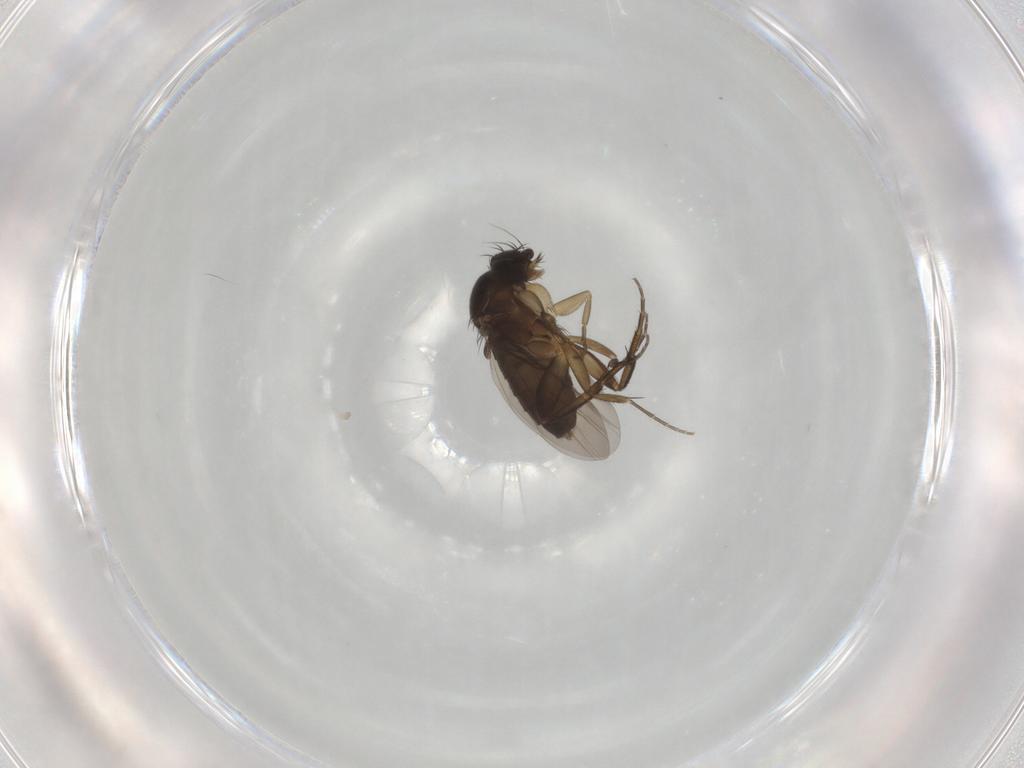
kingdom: Animalia
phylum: Arthropoda
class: Insecta
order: Diptera
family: Phoridae
